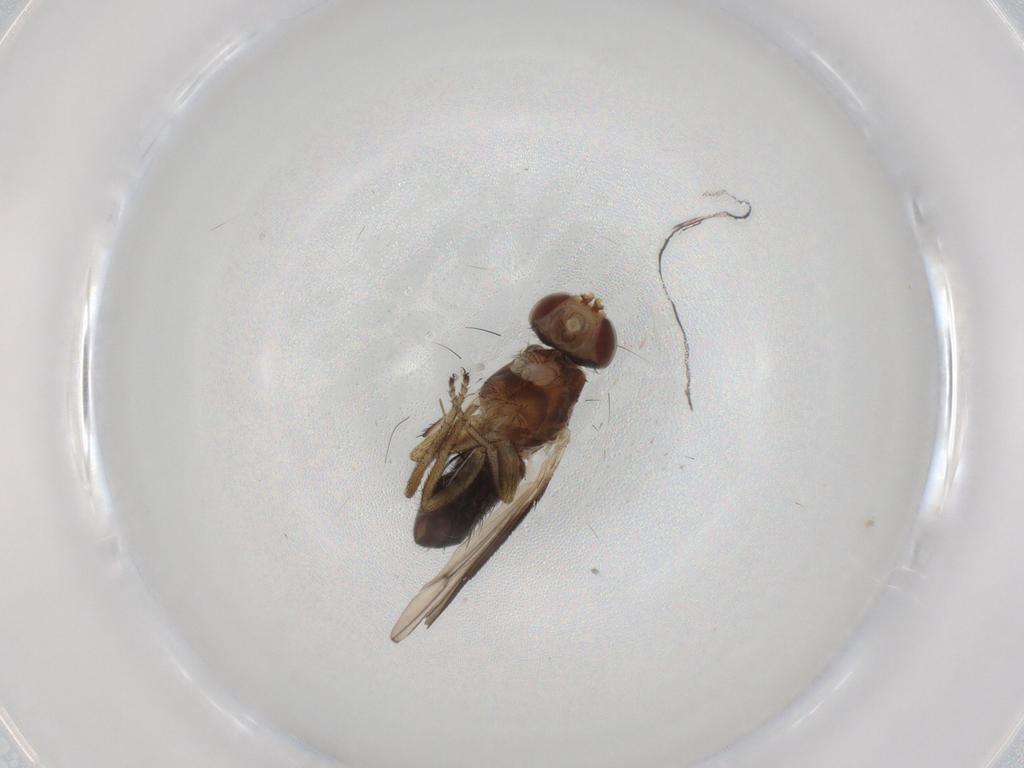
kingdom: Animalia
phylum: Arthropoda
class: Insecta
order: Diptera
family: Heleomyzidae
